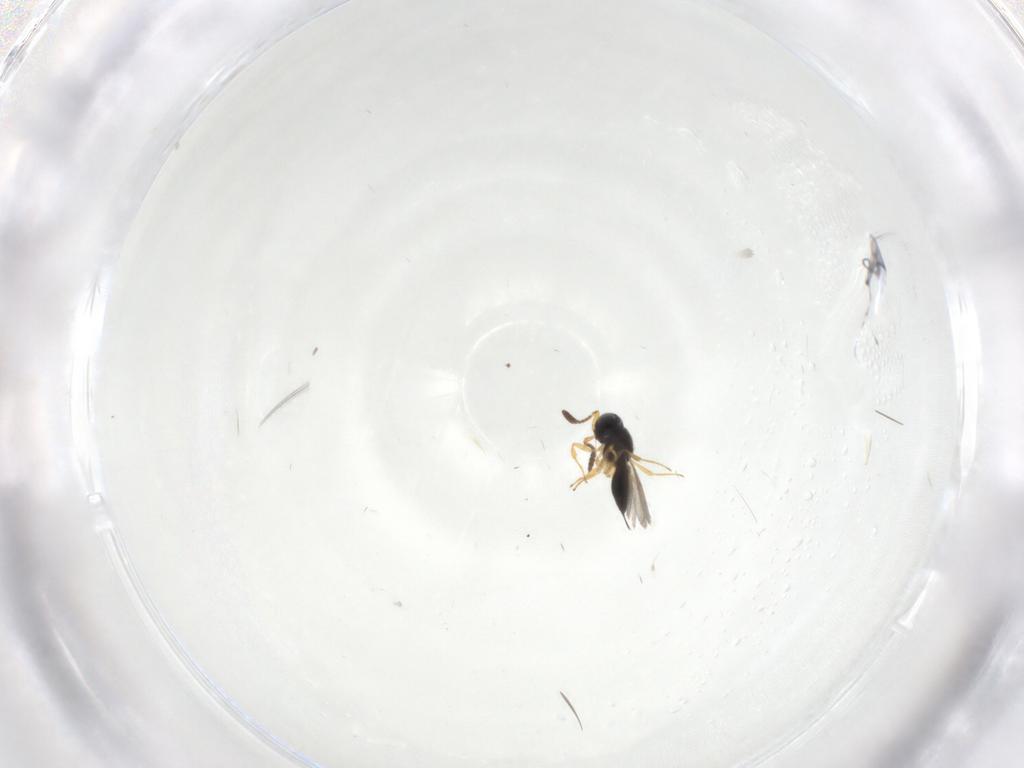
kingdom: Animalia
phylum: Arthropoda
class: Insecta
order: Hymenoptera
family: Scelionidae
